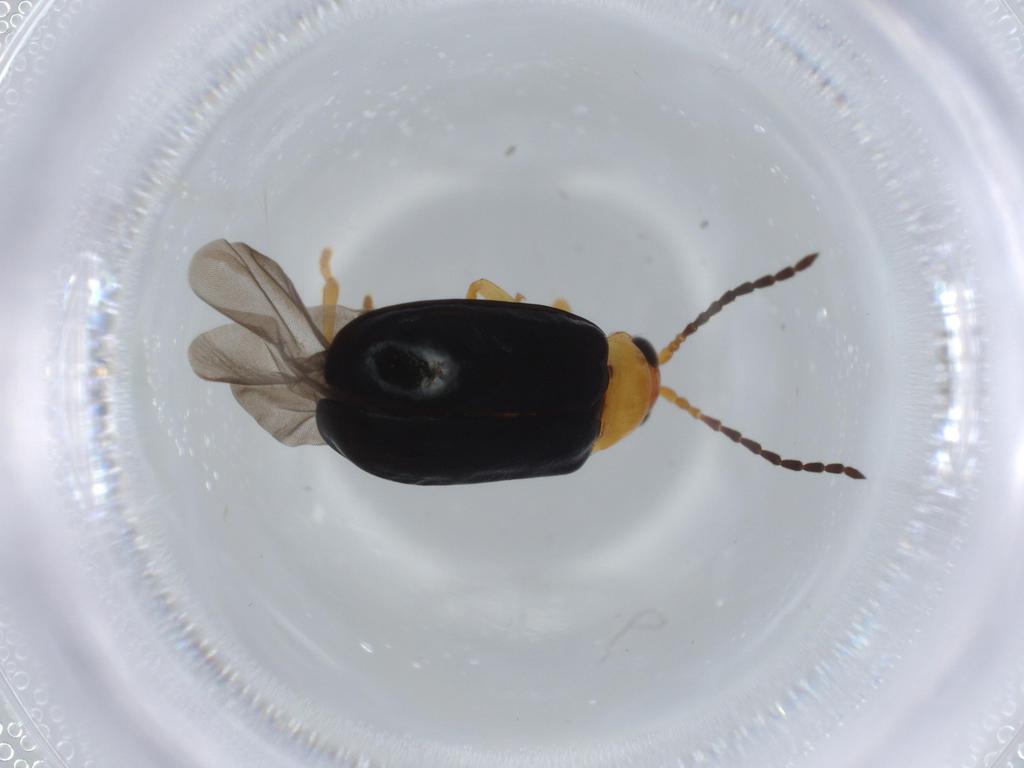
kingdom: Animalia
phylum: Arthropoda
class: Insecta
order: Coleoptera
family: Chrysomelidae
